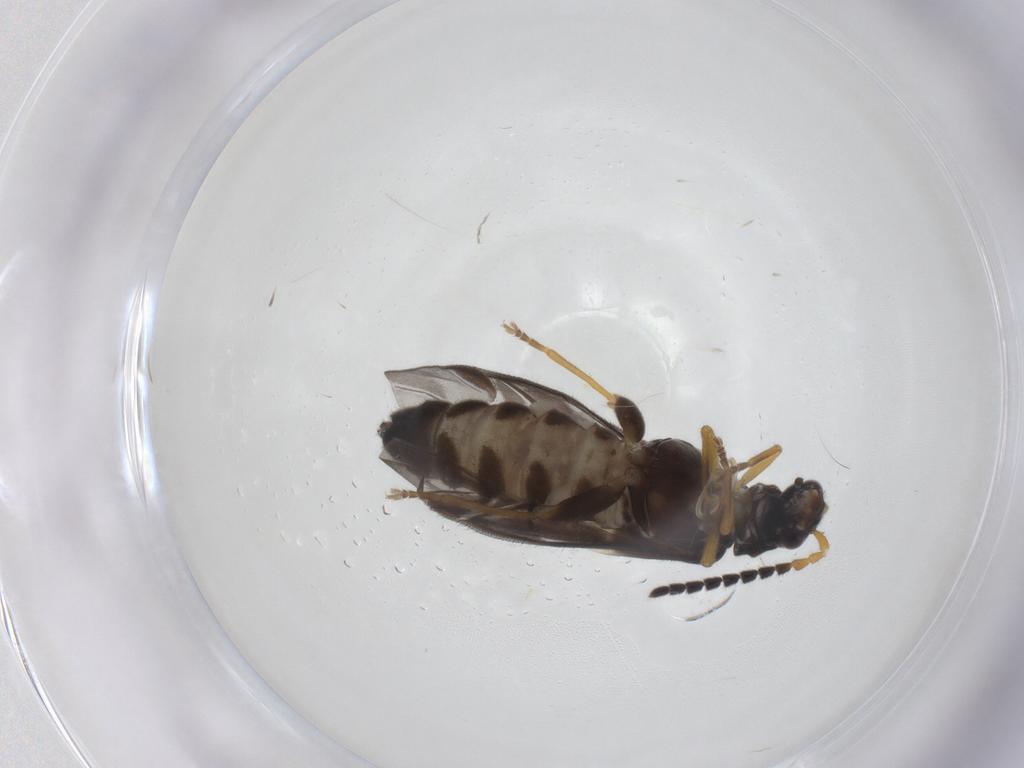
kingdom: Animalia
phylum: Arthropoda
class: Insecta
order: Coleoptera
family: Cantharidae
